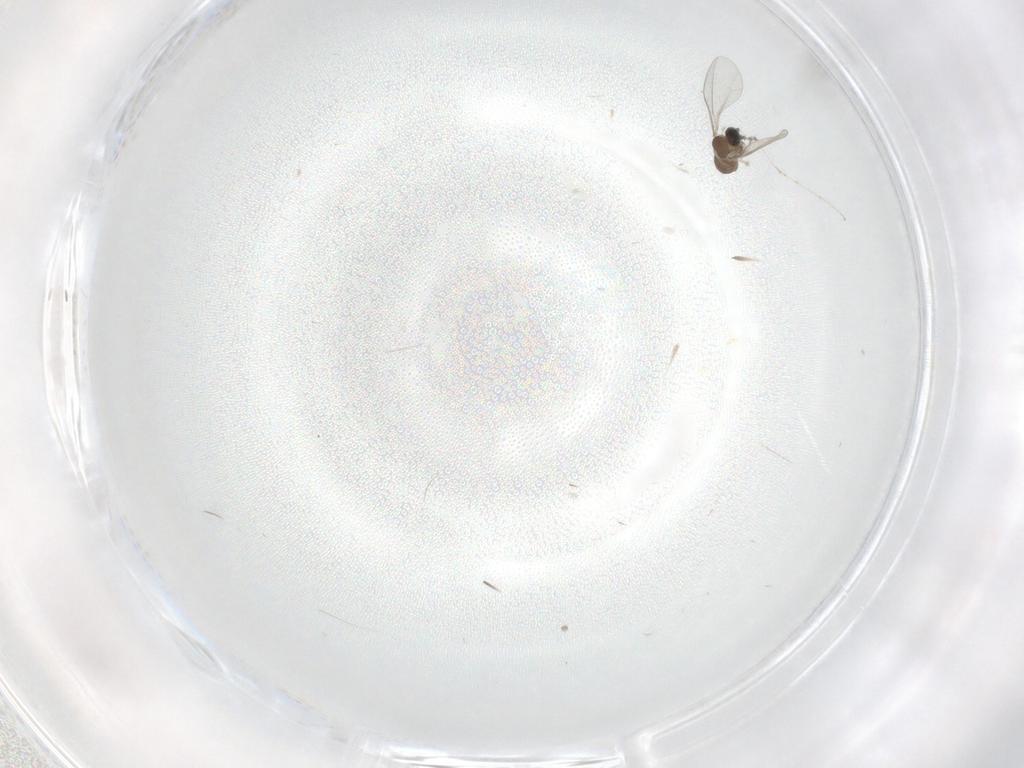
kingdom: Animalia
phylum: Arthropoda
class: Insecta
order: Diptera
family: Cecidomyiidae
